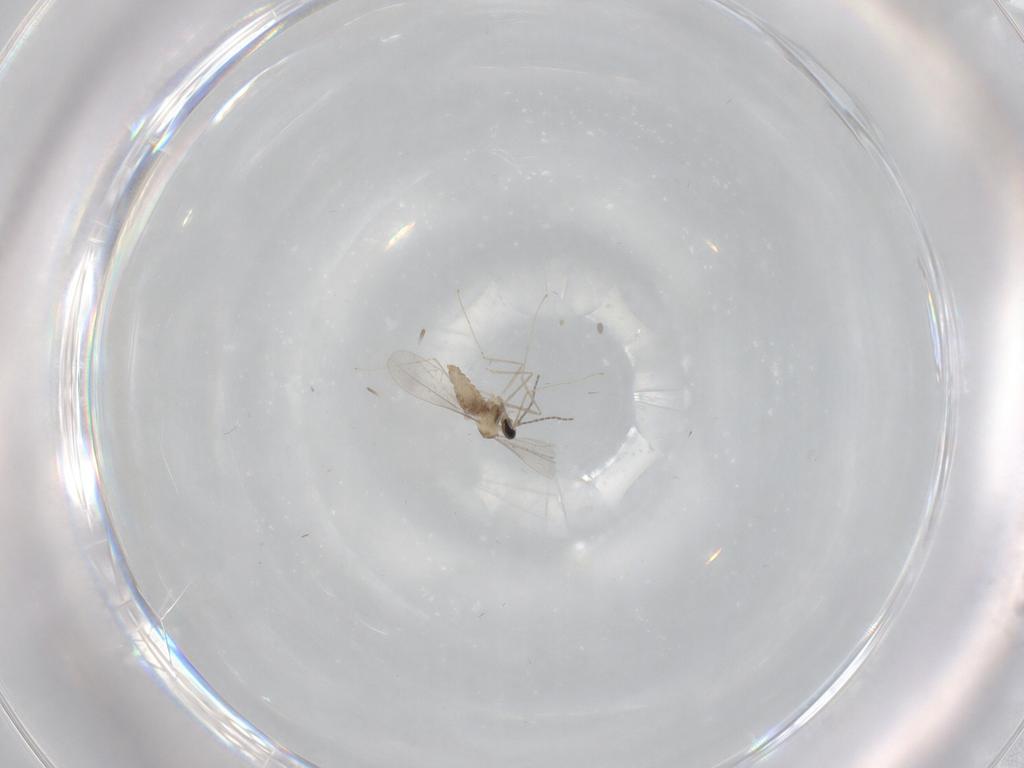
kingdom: Animalia
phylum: Arthropoda
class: Insecta
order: Diptera
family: Cecidomyiidae
